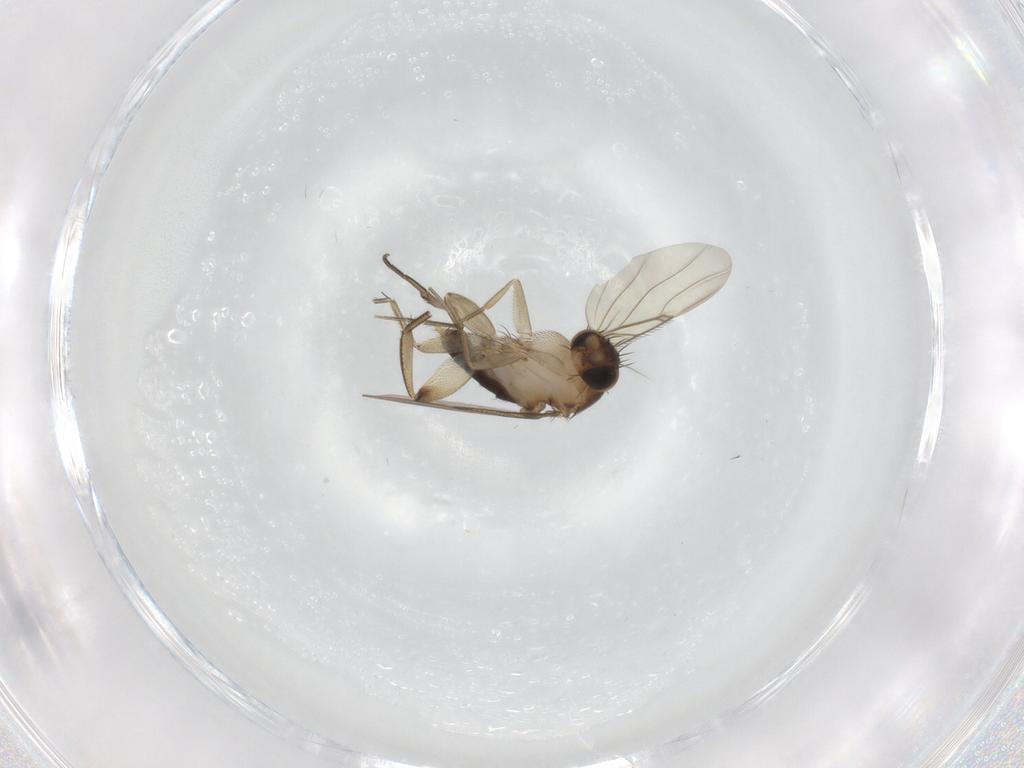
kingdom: Animalia
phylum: Arthropoda
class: Insecta
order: Diptera
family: Phoridae
